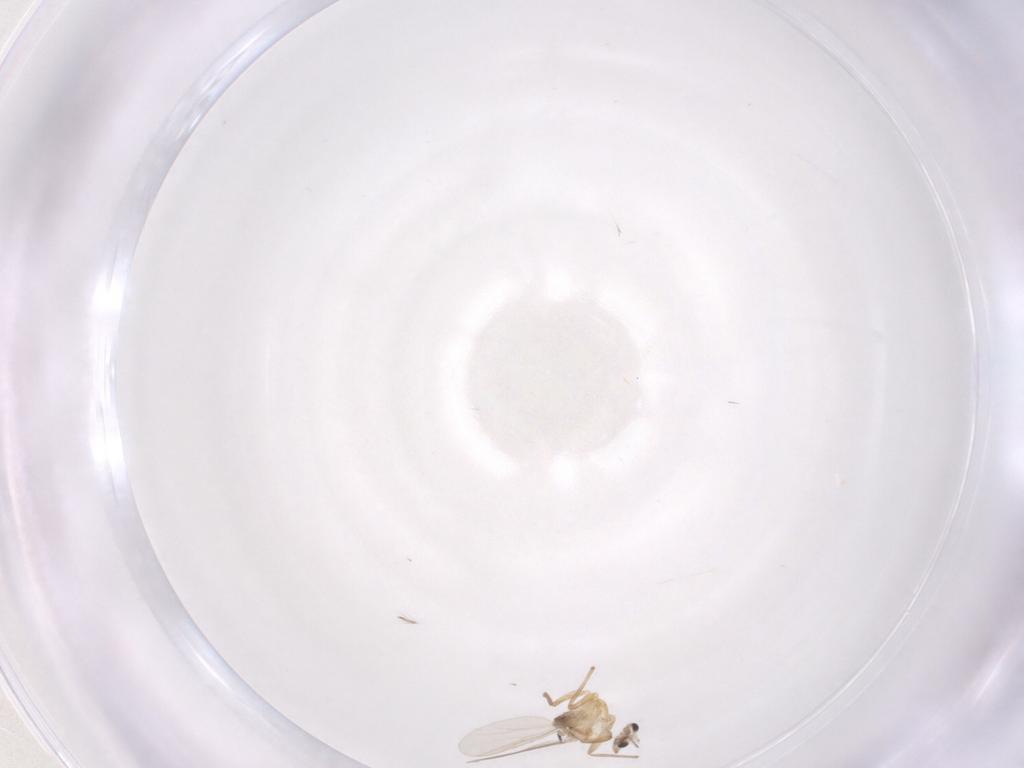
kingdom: Animalia
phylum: Arthropoda
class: Insecta
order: Diptera
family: Chironomidae
